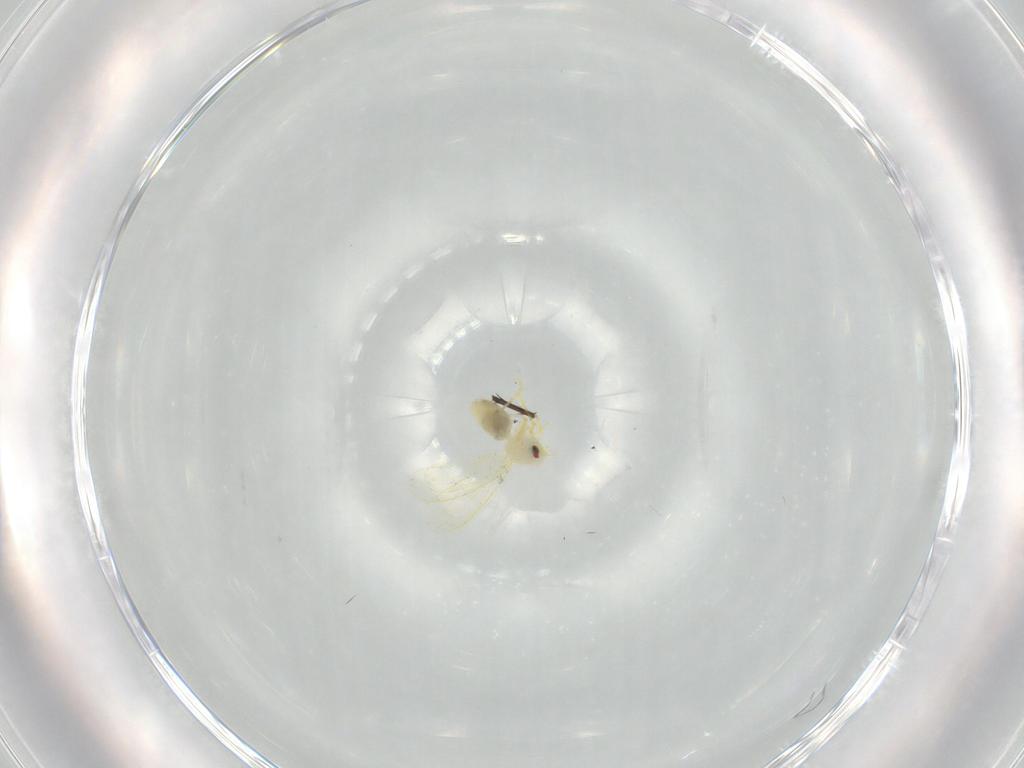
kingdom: Animalia
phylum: Arthropoda
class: Insecta
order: Hemiptera
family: Aleyrodidae
